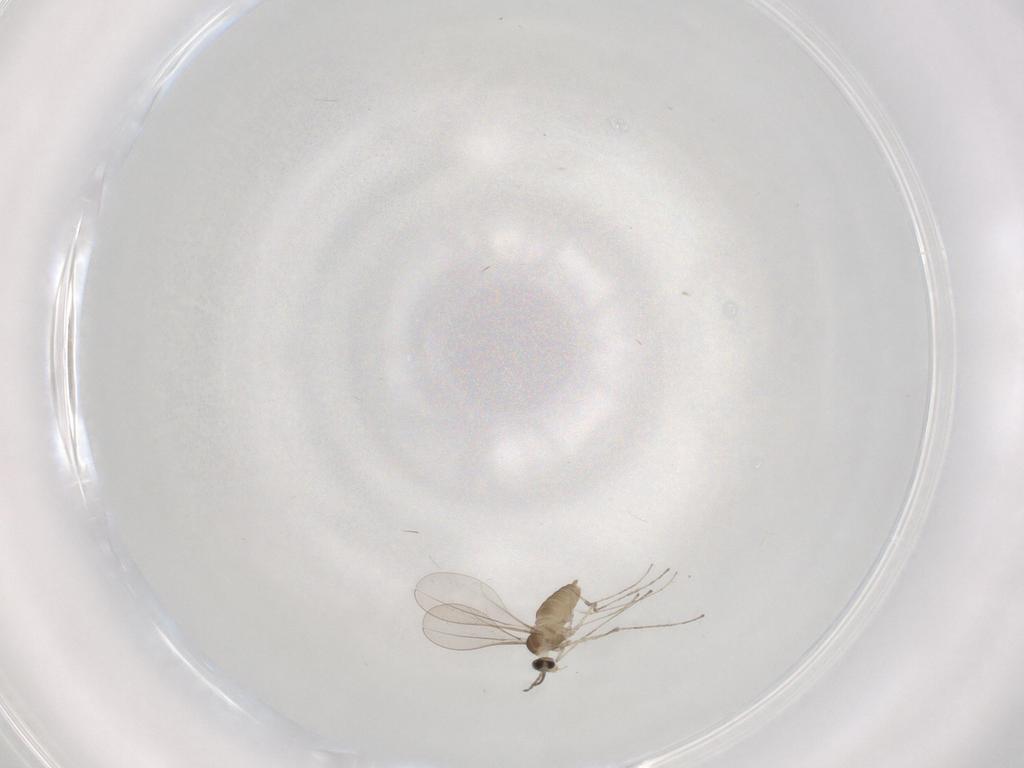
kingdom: Animalia
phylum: Arthropoda
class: Insecta
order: Diptera
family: Cecidomyiidae
